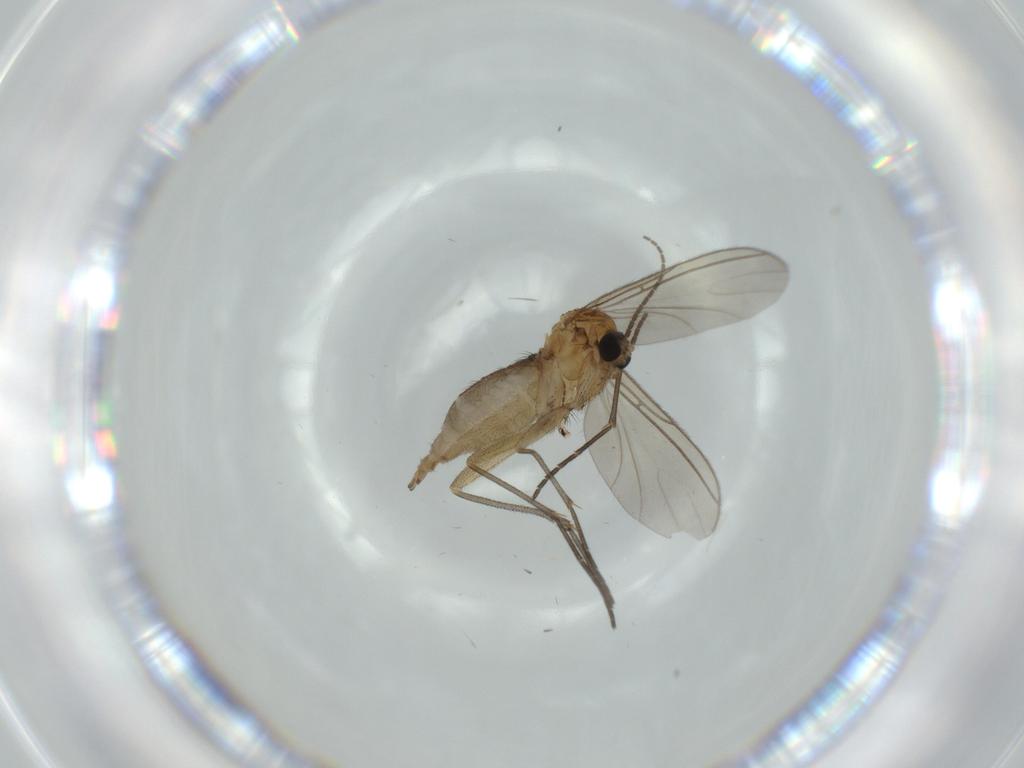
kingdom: Animalia
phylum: Arthropoda
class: Insecta
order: Diptera
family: Sciaridae
